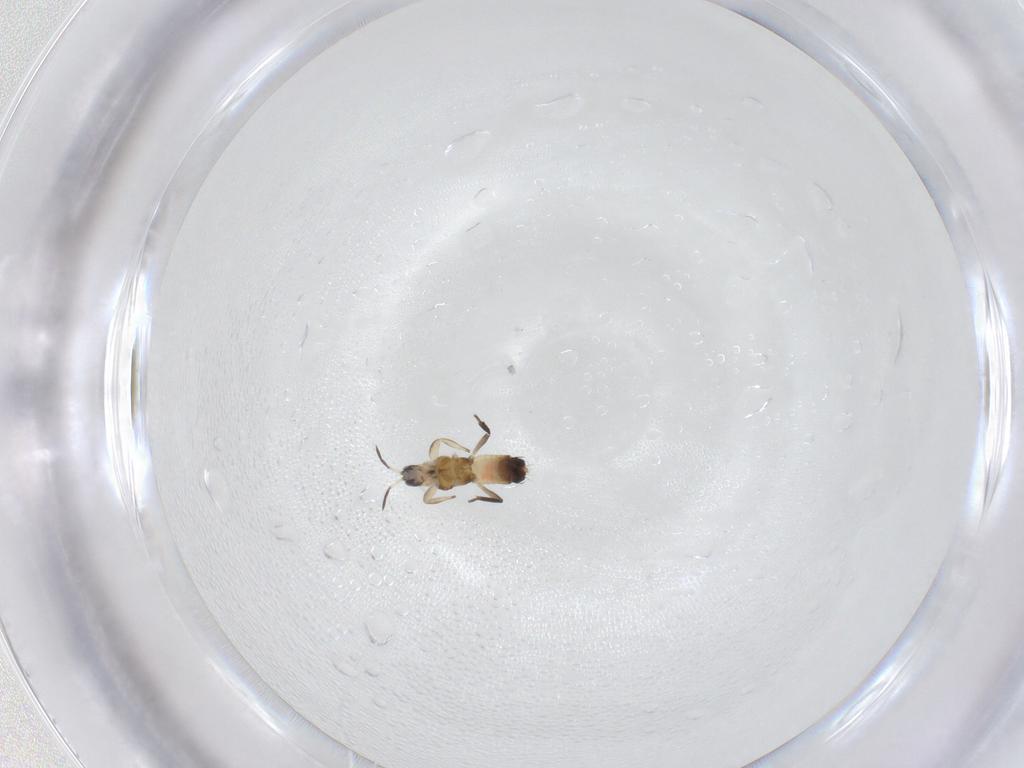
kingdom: Animalia
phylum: Arthropoda
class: Insecta
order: Thysanoptera
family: Aeolothripidae
